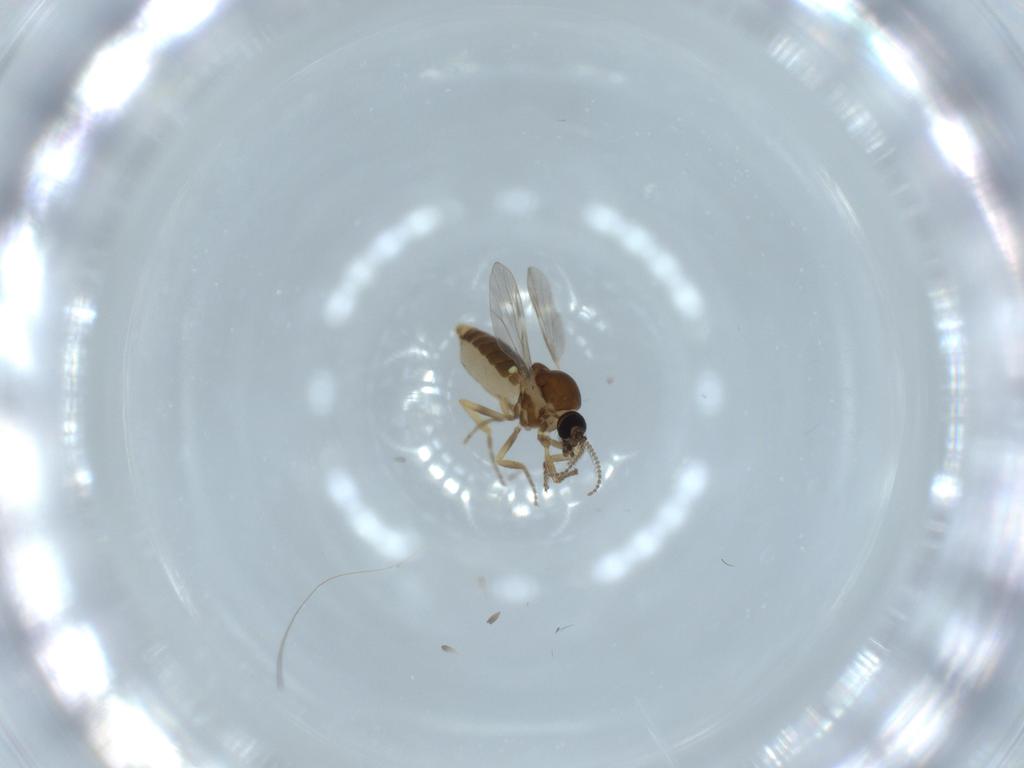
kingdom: Animalia
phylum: Arthropoda
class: Insecta
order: Diptera
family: Ceratopogonidae
